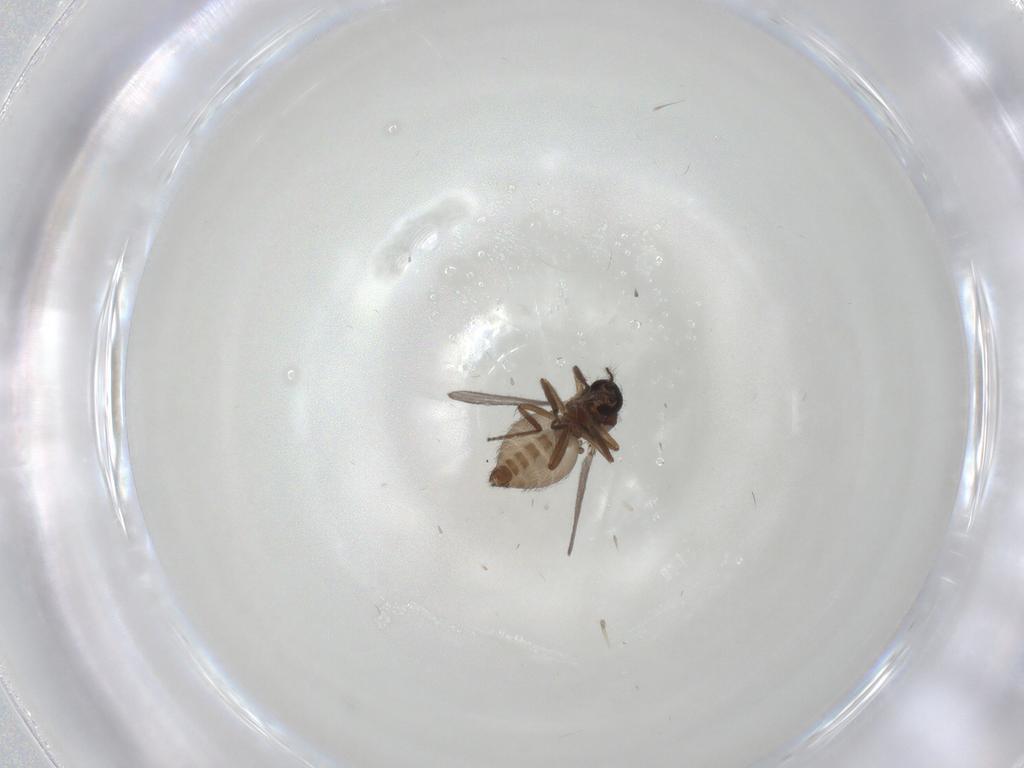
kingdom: Animalia
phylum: Arthropoda
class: Insecta
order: Diptera
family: Ceratopogonidae
